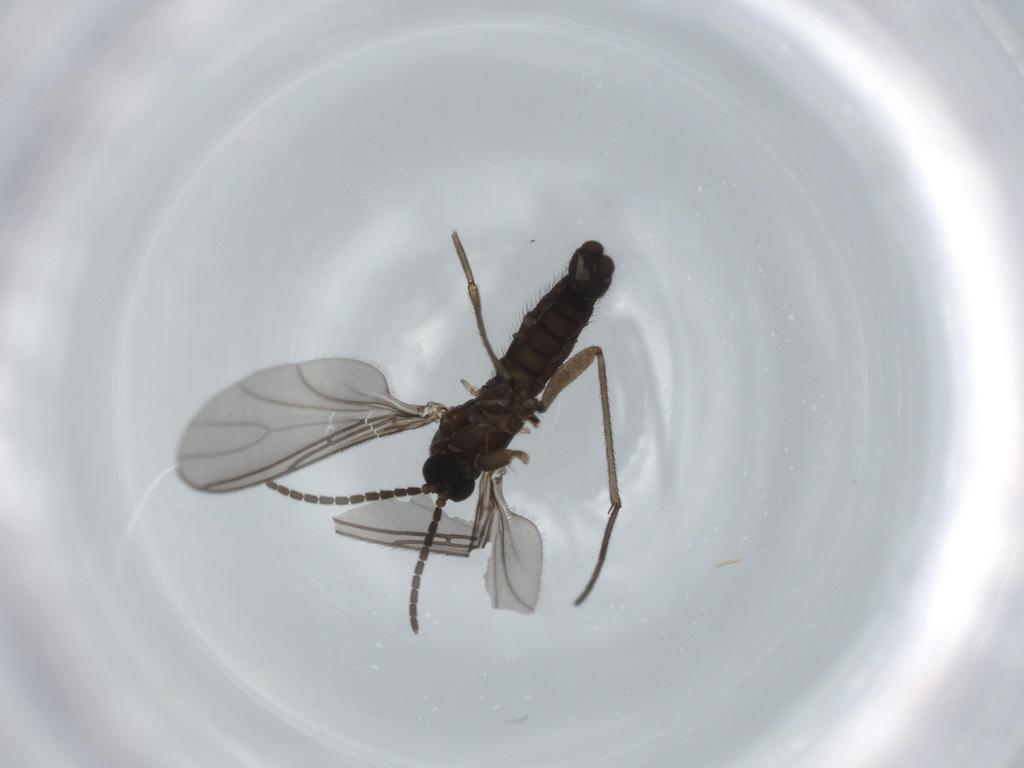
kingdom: Animalia
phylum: Arthropoda
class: Insecta
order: Diptera
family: Sciaridae
